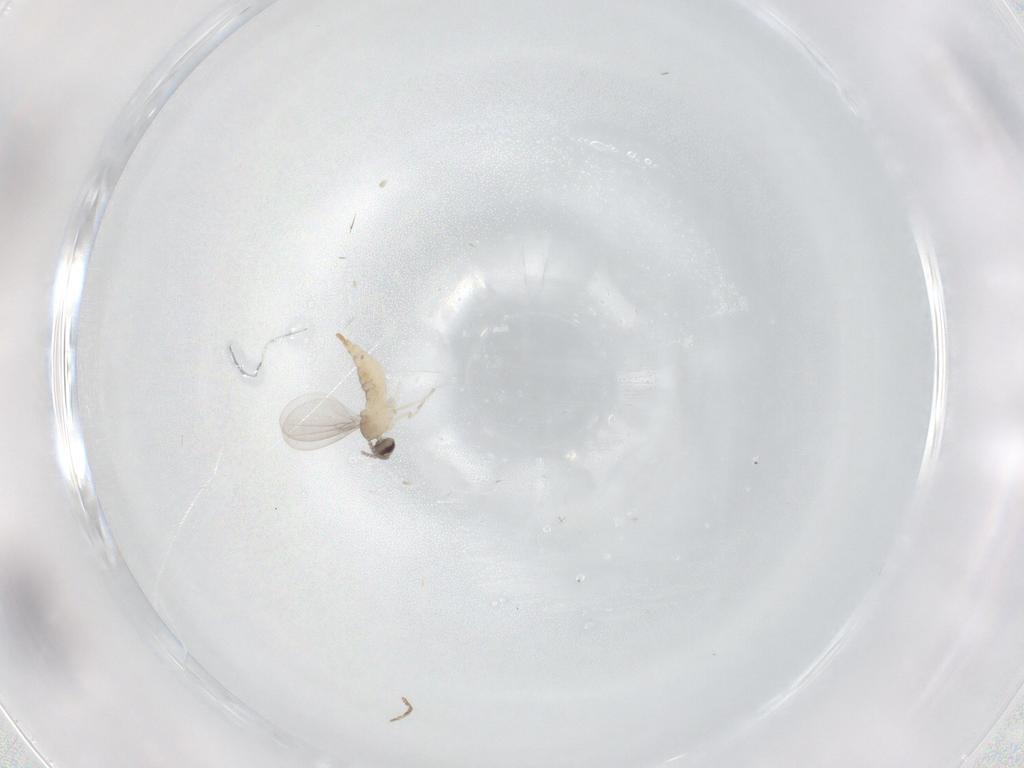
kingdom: Animalia
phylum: Arthropoda
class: Insecta
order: Diptera
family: Cecidomyiidae
